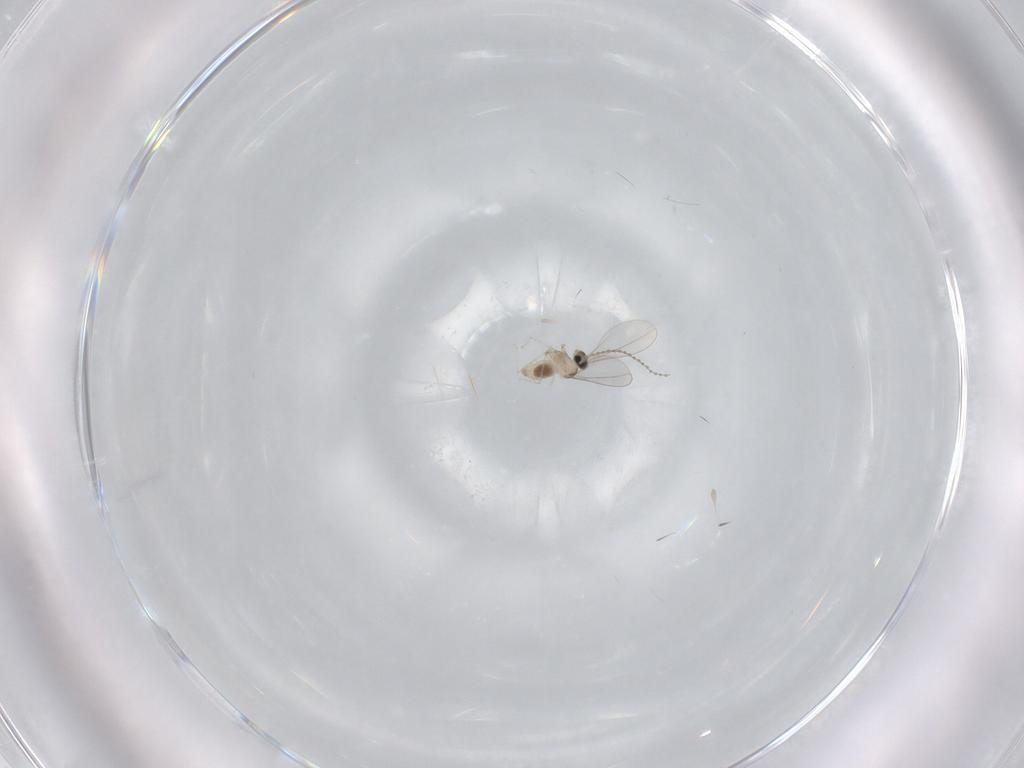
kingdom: Animalia
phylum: Arthropoda
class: Insecta
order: Diptera
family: Cecidomyiidae
